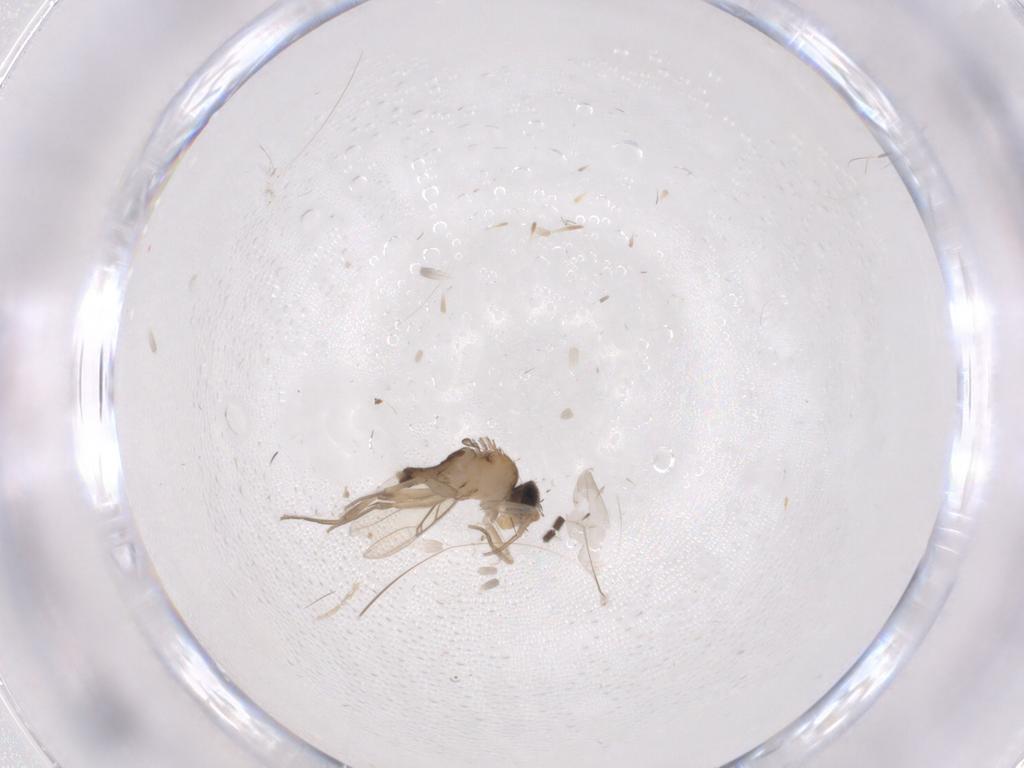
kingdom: Animalia
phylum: Arthropoda
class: Insecta
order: Diptera
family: Phoridae
